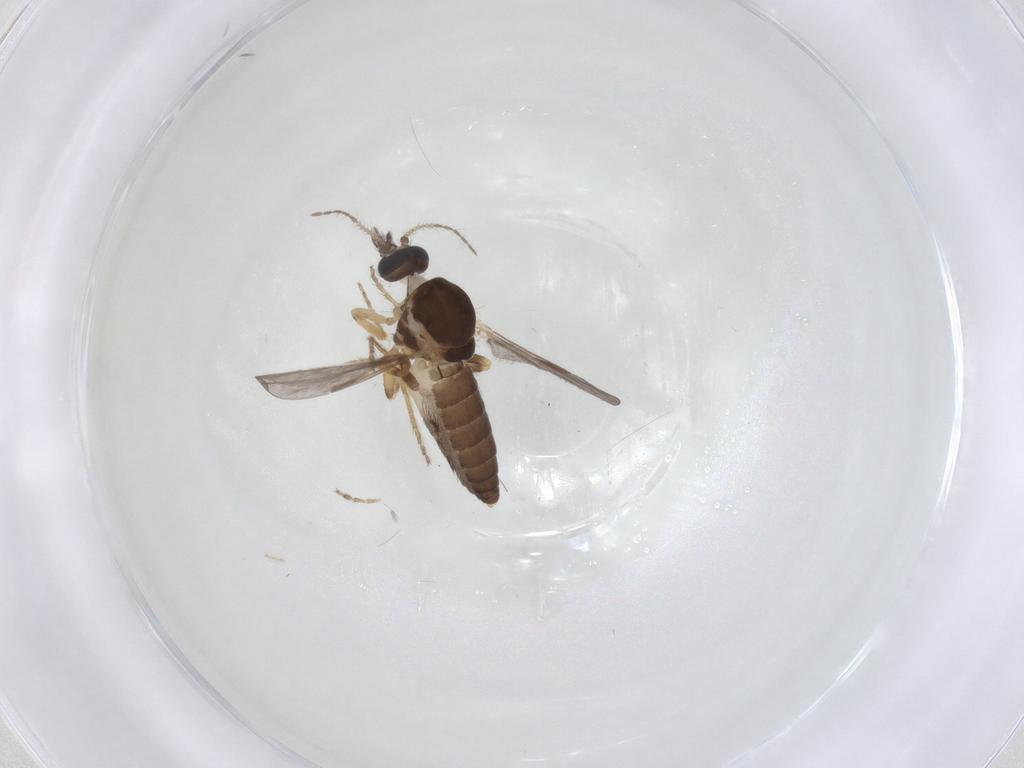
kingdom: Animalia
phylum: Arthropoda
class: Insecta
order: Diptera
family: Ceratopogonidae
